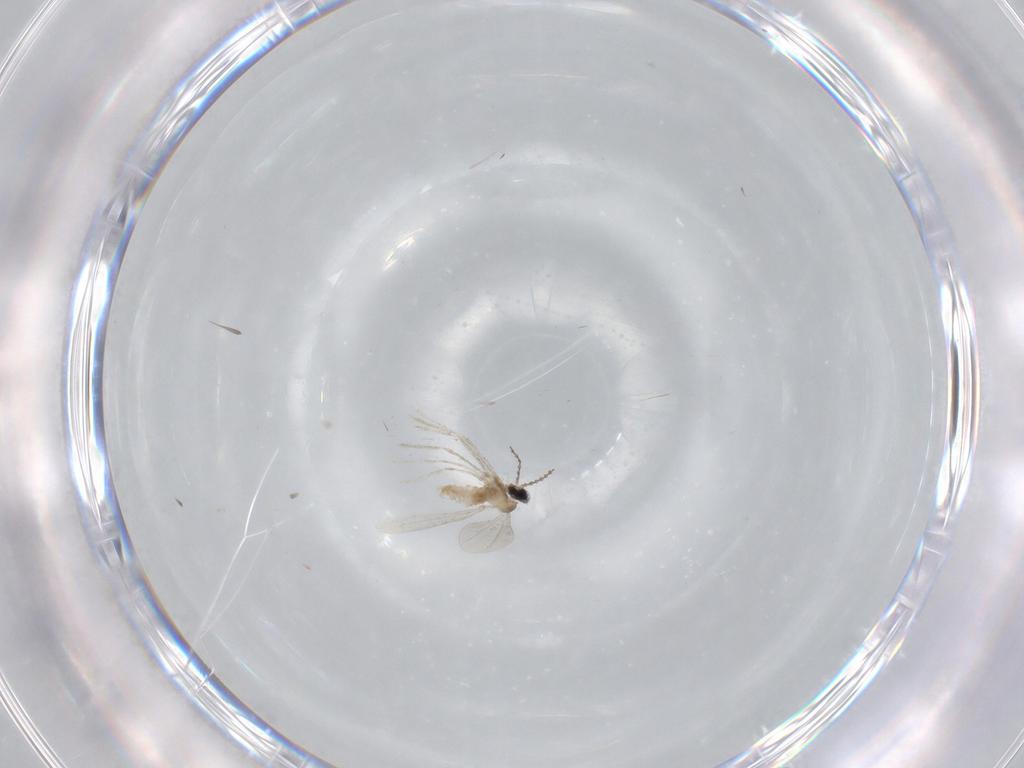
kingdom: Animalia
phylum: Arthropoda
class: Insecta
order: Diptera
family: Cecidomyiidae
